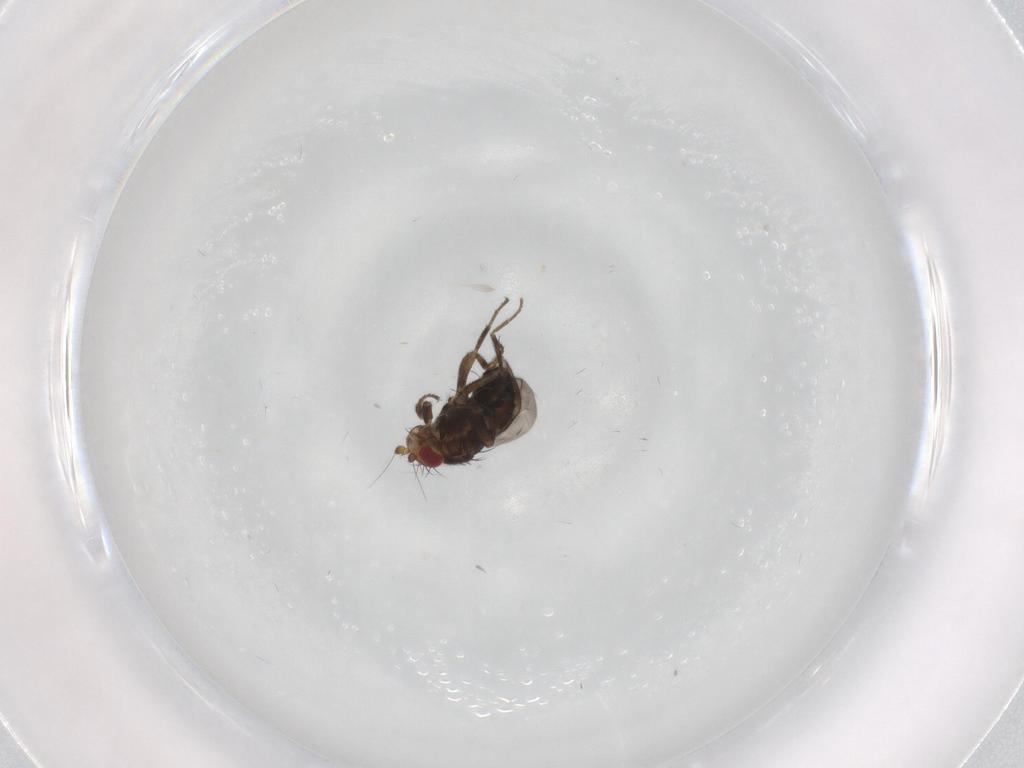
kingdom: Animalia
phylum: Arthropoda
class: Insecta
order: Diptera
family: Sphaeroceridae
